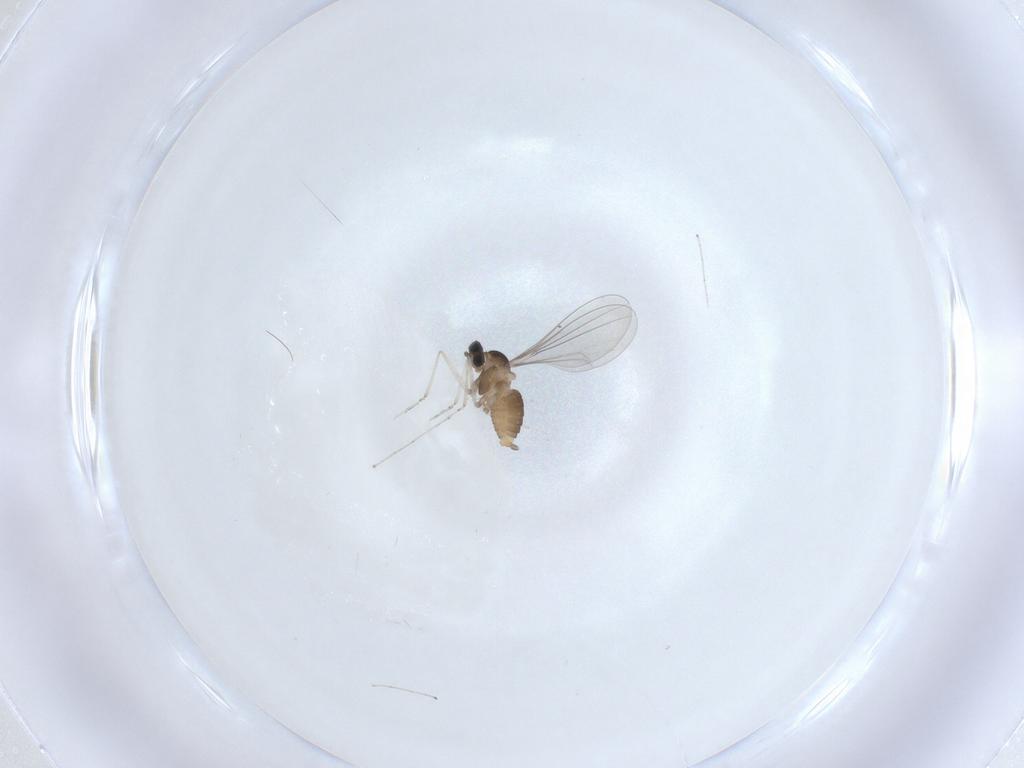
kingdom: Animalia
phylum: Arthropoda
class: Insecta
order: Diptera
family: Cecidomyiidae
